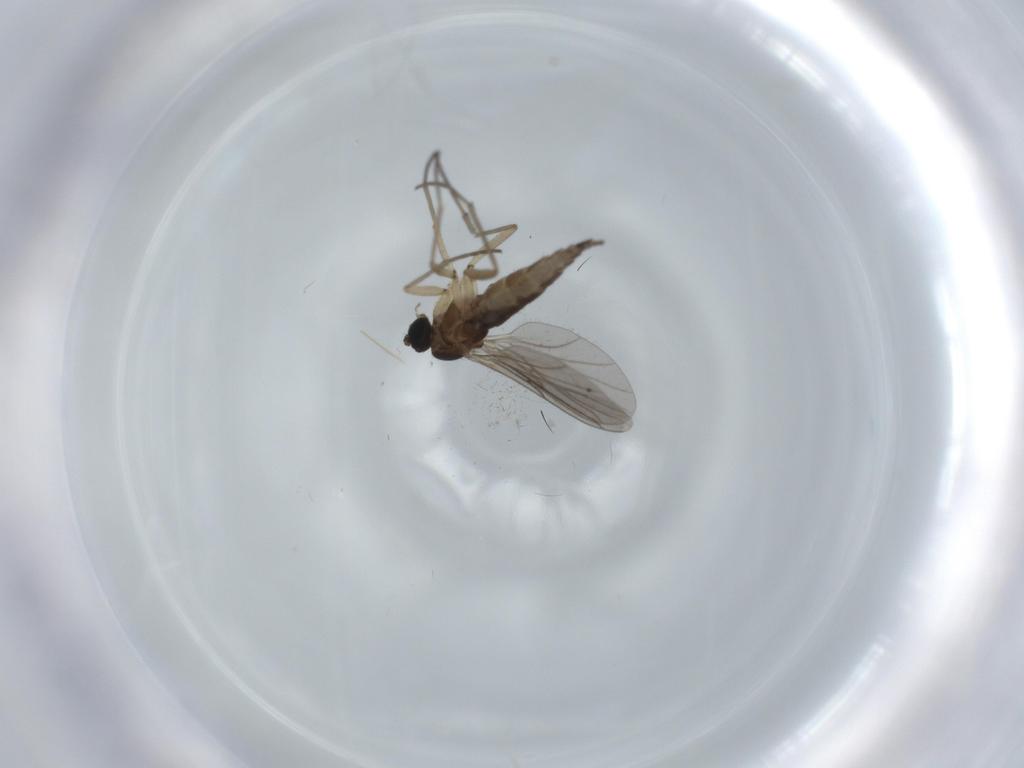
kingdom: Animalia
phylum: Arthropoda
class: Insecta
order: Diptera
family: Sciaridae
